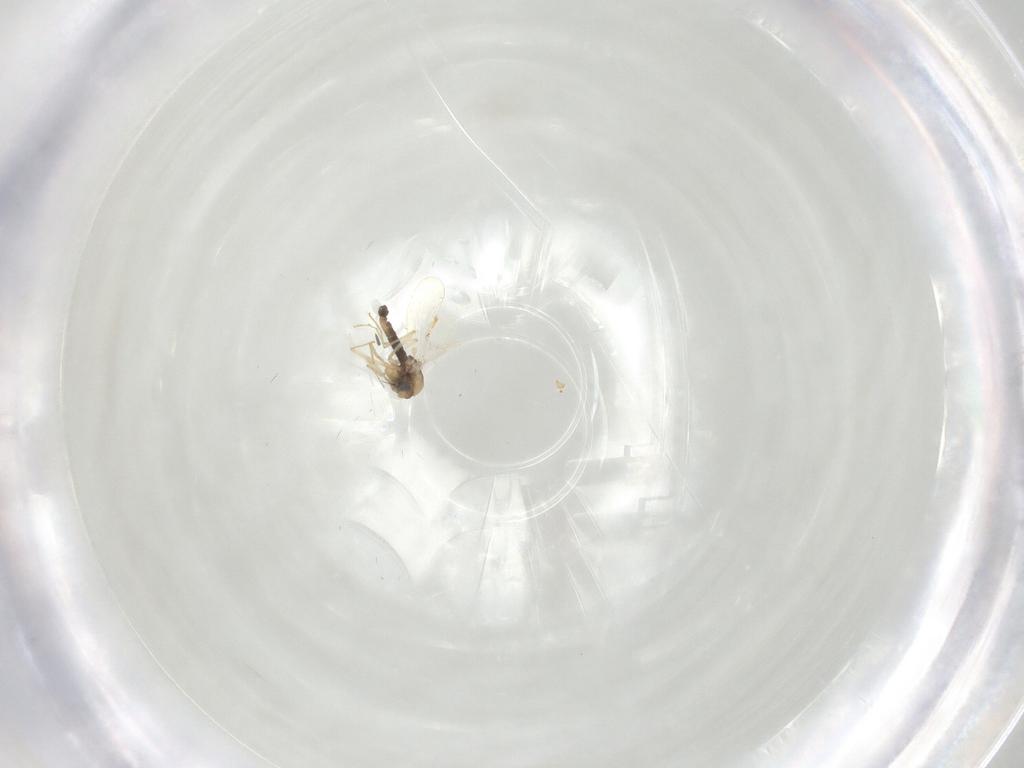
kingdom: Animalia
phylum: Arthropoda
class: Insecta
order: Diptera
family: Chironomidae
